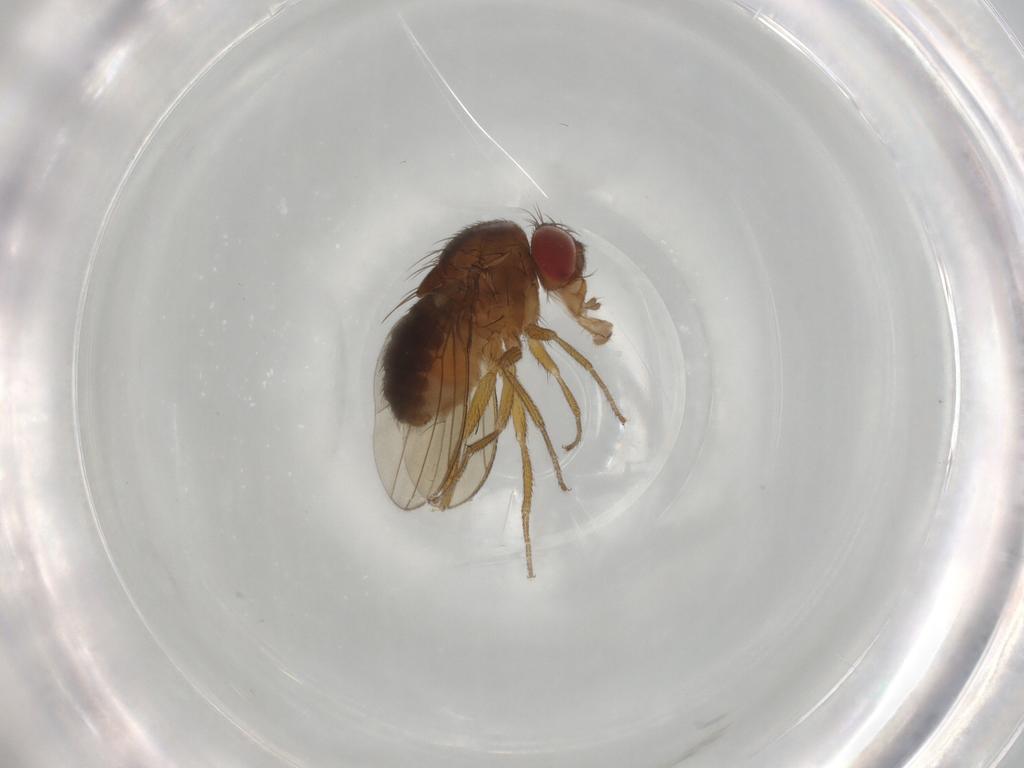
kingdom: Animalia
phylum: Arthropoda
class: Insecta
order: Diptera
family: Drosophilidae
